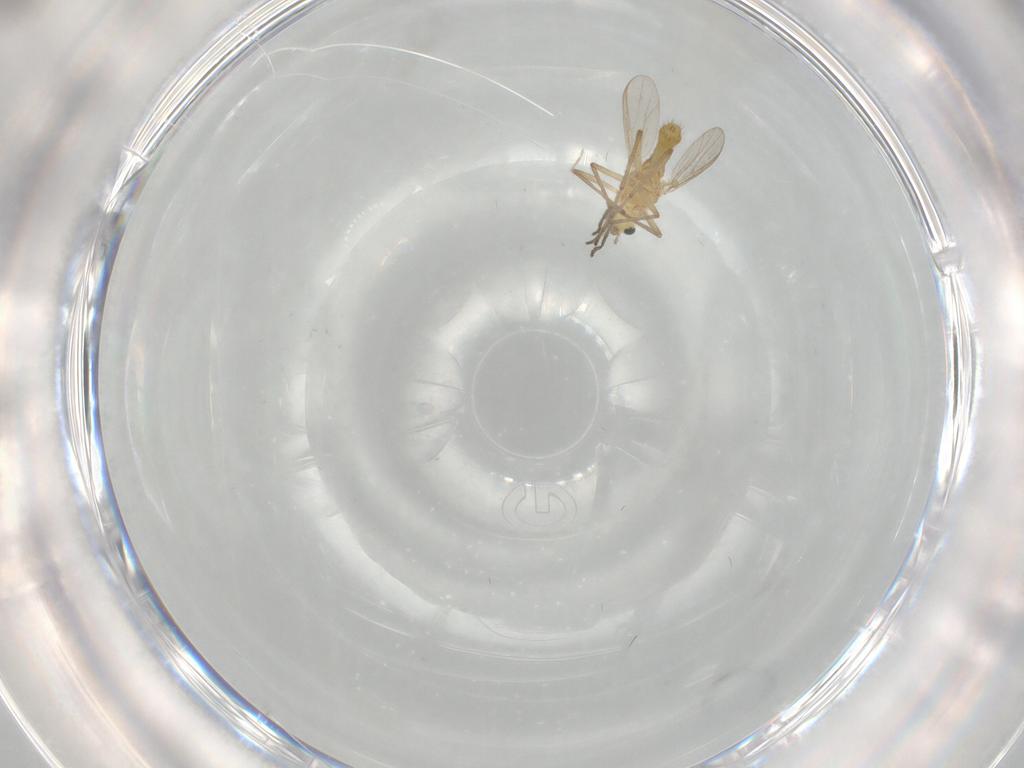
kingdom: Animalia
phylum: Arthropoda
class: Insecta
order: Diptera
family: Chironomidae
